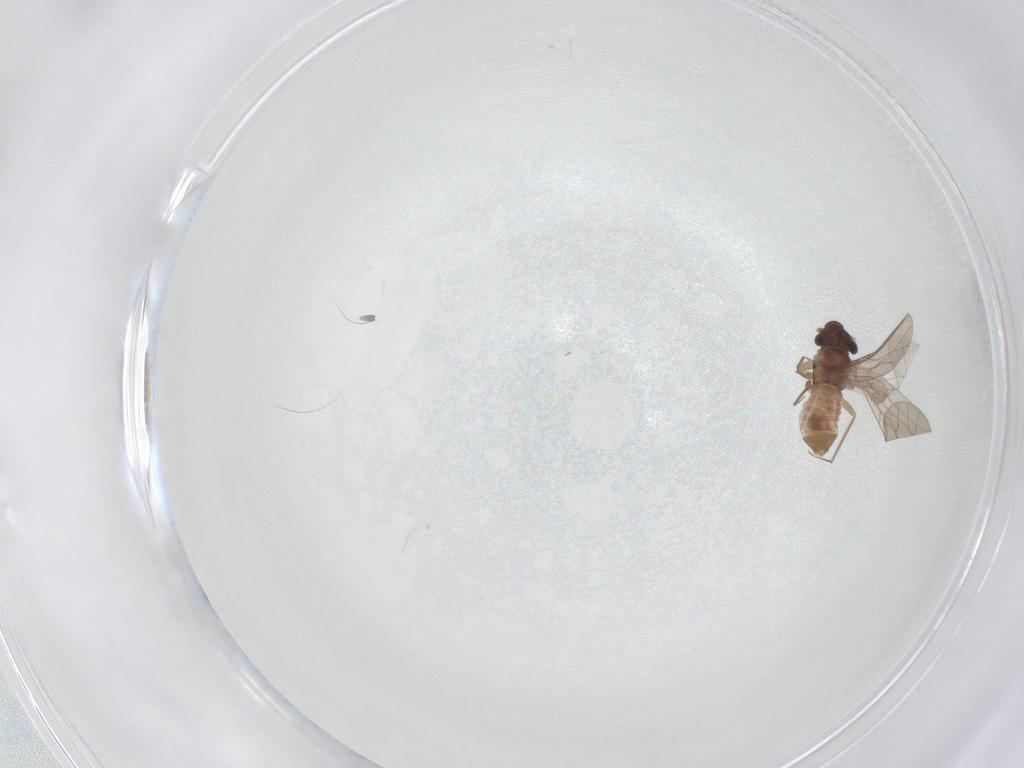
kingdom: Animalia
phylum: Arthropoda
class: Insecta
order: Psocodea
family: Lepidopsocidae
